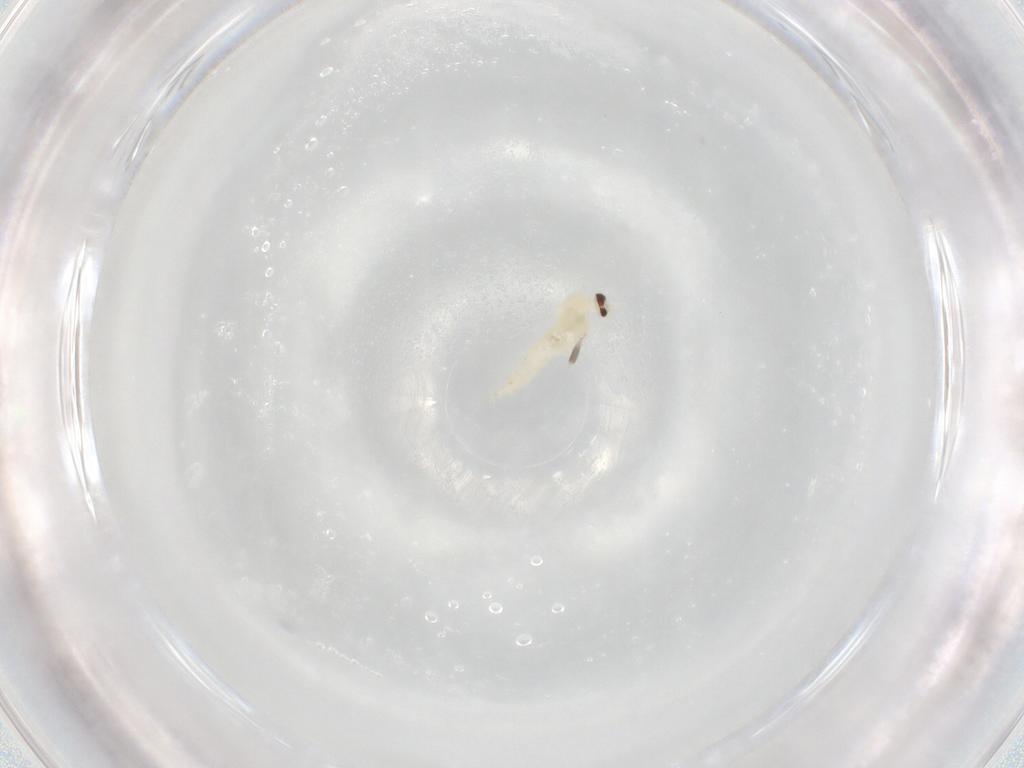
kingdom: Animalia
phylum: Arthropoda
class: Insecta
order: Diptera
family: Cecidomyiidae
